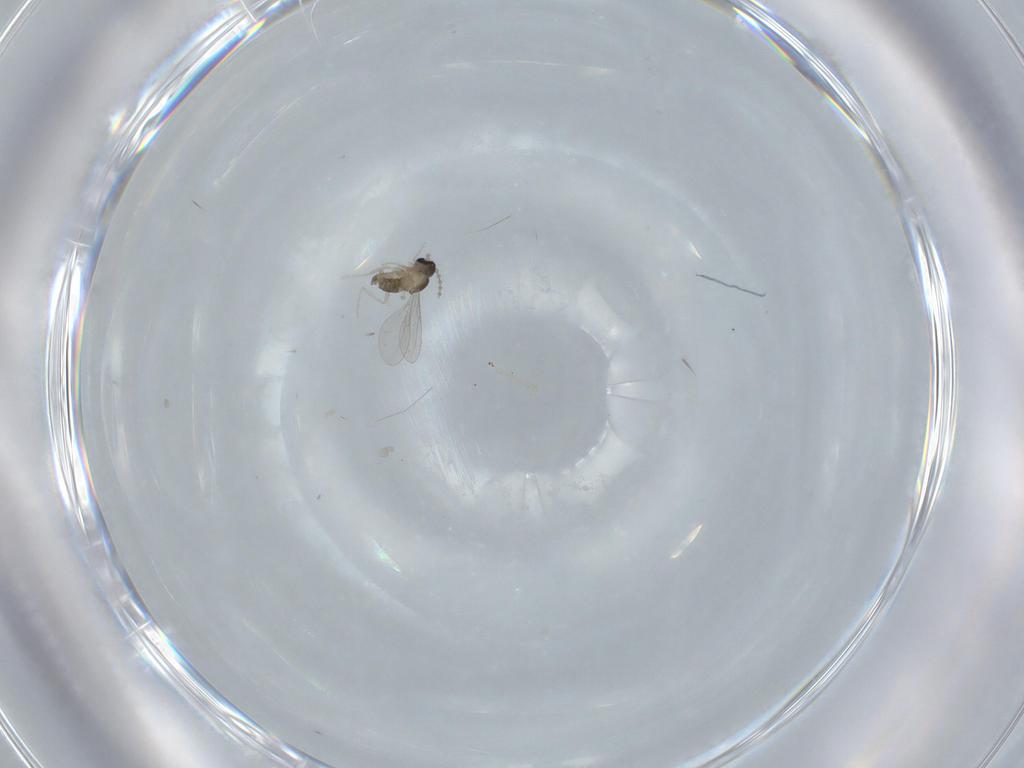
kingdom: Animalia
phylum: Arthropoda
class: Insecta
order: Diptera
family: Cecidomyiidae
